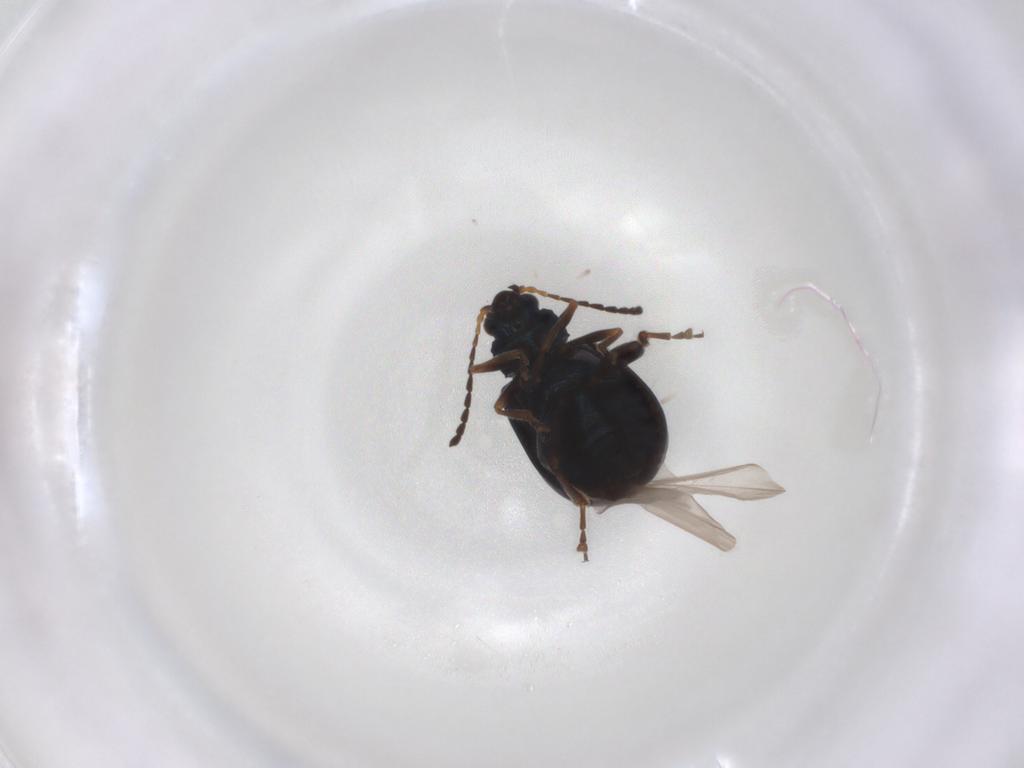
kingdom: Animalia
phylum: Arthropoda
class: Insecta
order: Coleoptera
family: Chrysomelidae
